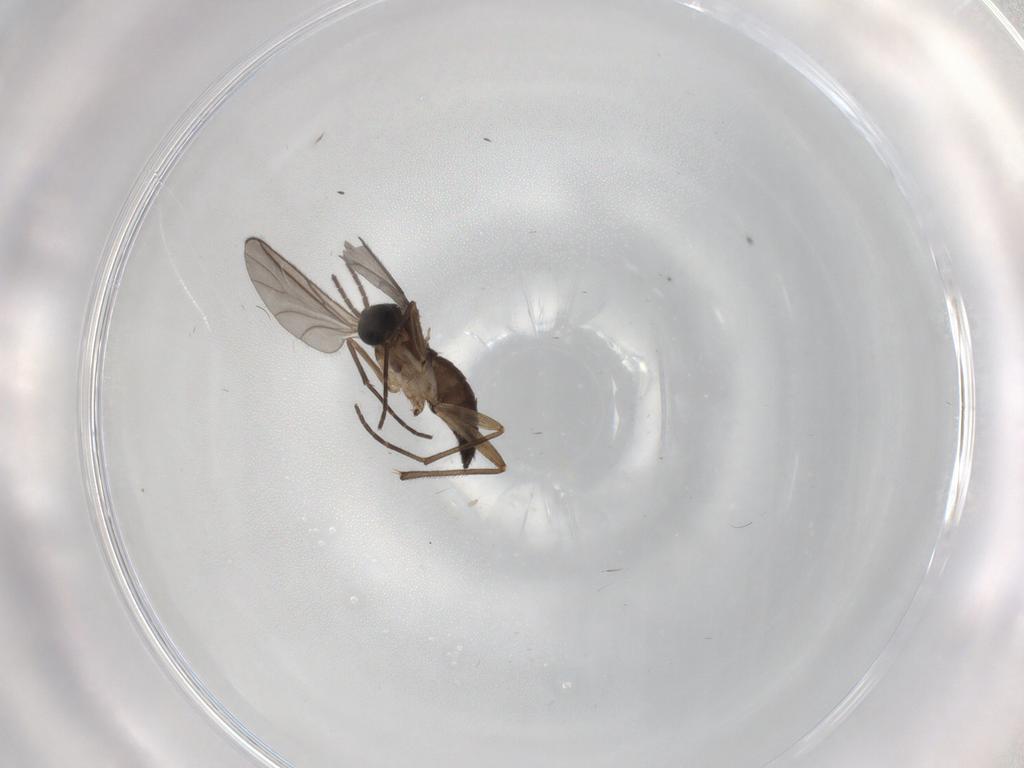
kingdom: Animalia
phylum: Arthropoda
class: Insecta
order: Diptera
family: Sciaridae
